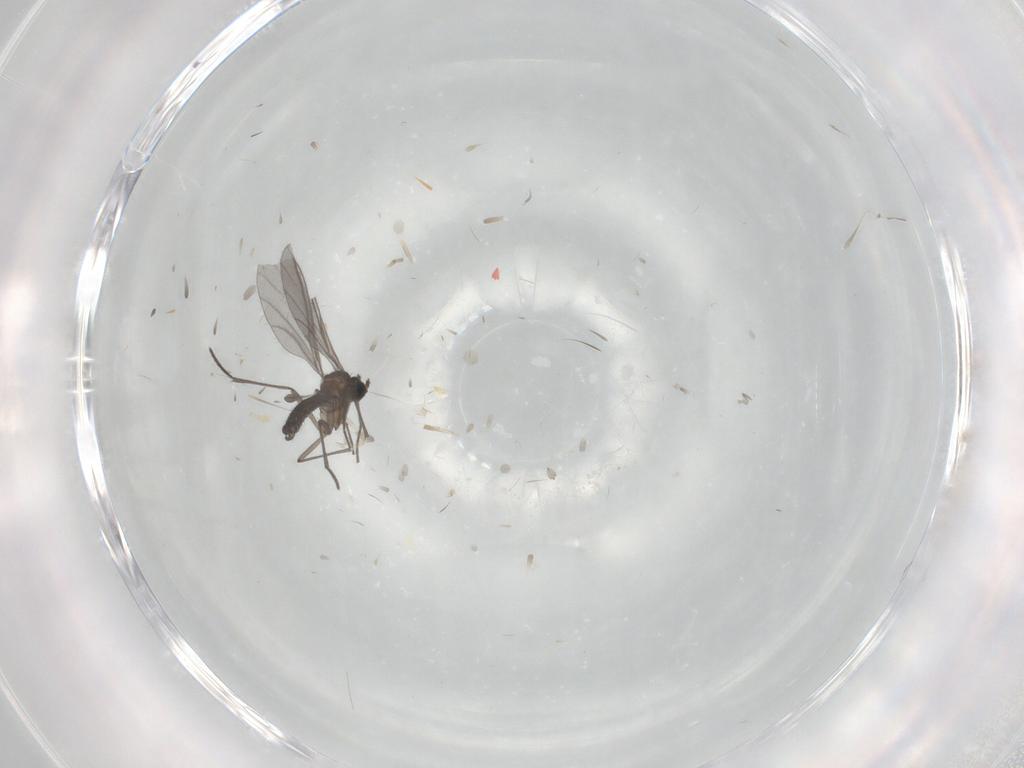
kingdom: Animalia
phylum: Arthropoda
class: Insecta
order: Diptera
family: Cecidomyiidae
